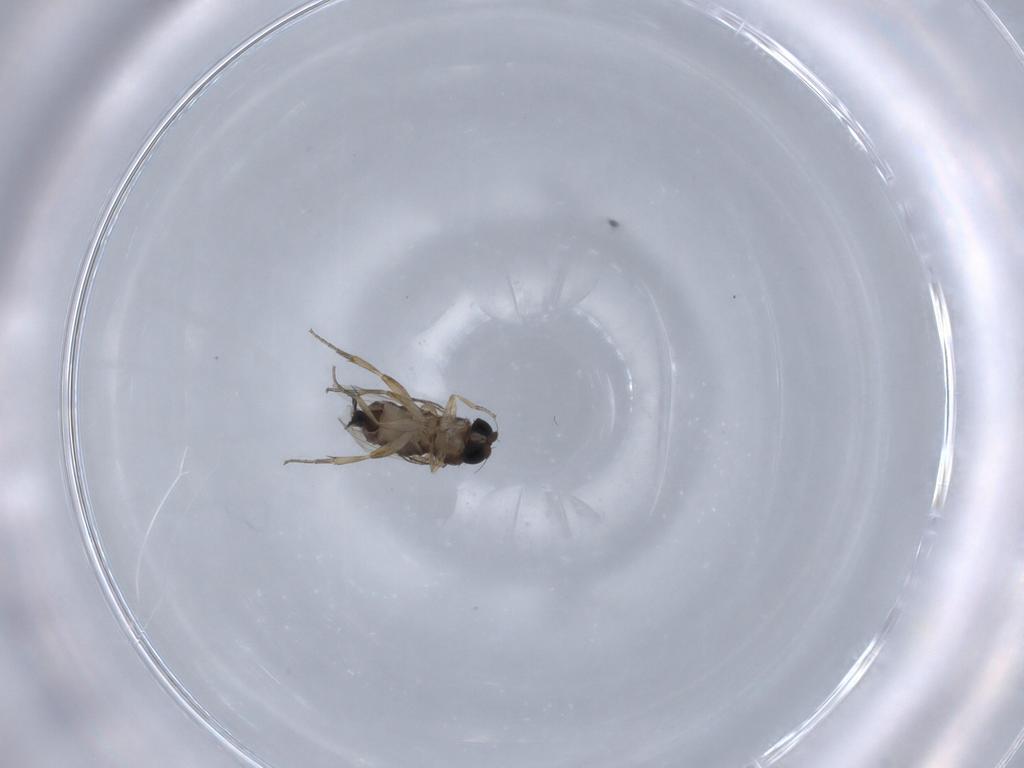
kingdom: Animalia
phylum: Arthropoda
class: Insecta
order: Diptera
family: Phoridae
